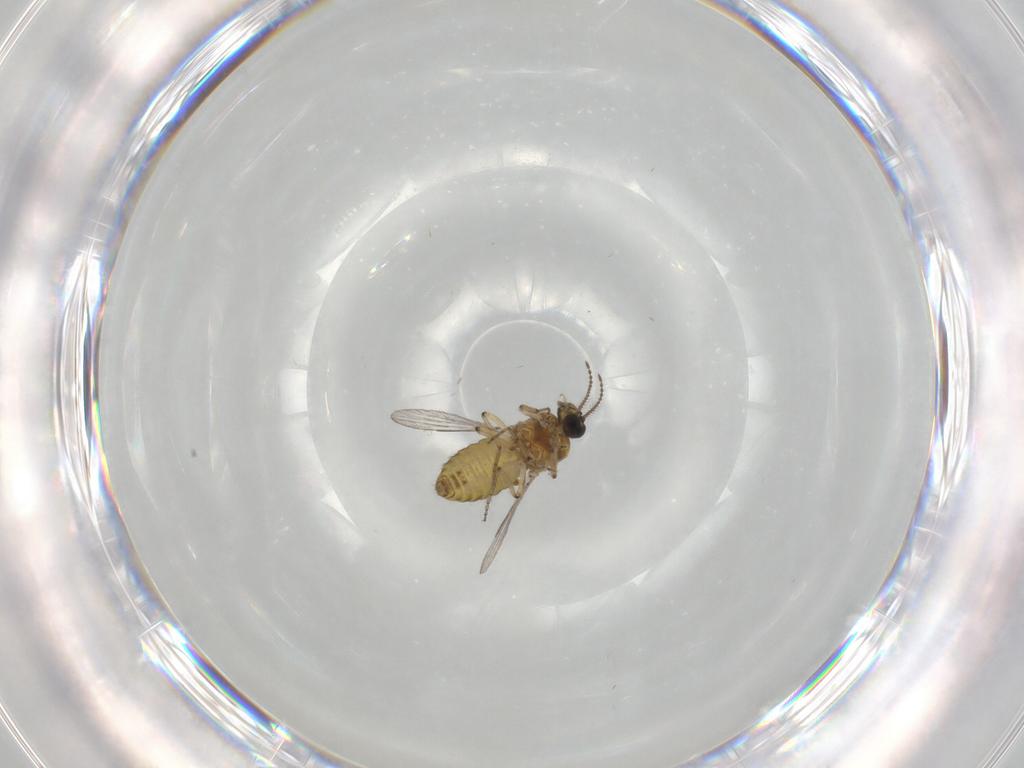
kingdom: Animalia
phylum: Arthropoda
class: Insecta
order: Diptera
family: Ceratopogonidae
